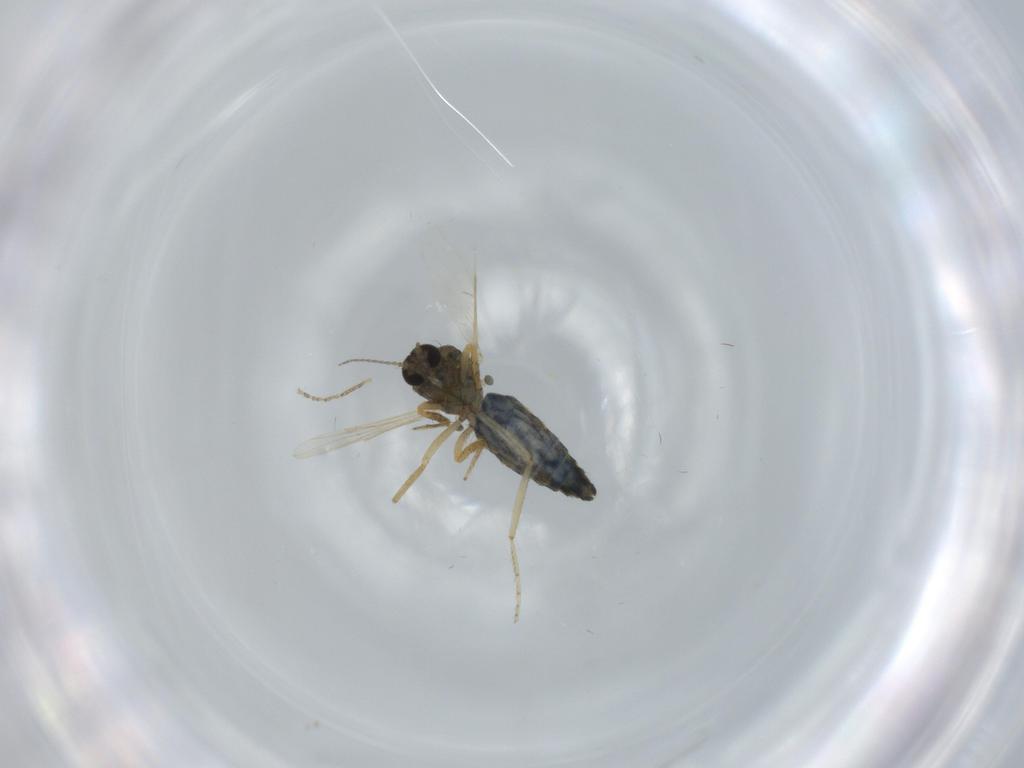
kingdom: Animalia
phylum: Arthropoda
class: Insecta
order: Diptera
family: Ceratopogonidae
